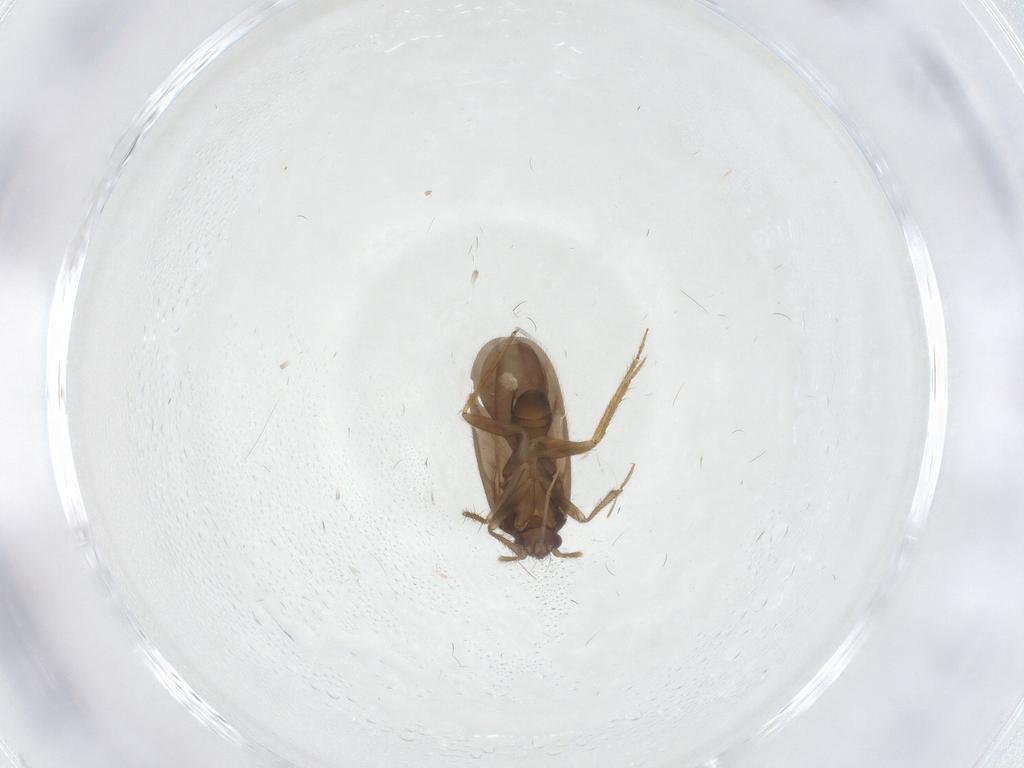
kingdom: Animalia
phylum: Arthropoda
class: Insecta
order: Hemiptera
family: Ceratocombidae
